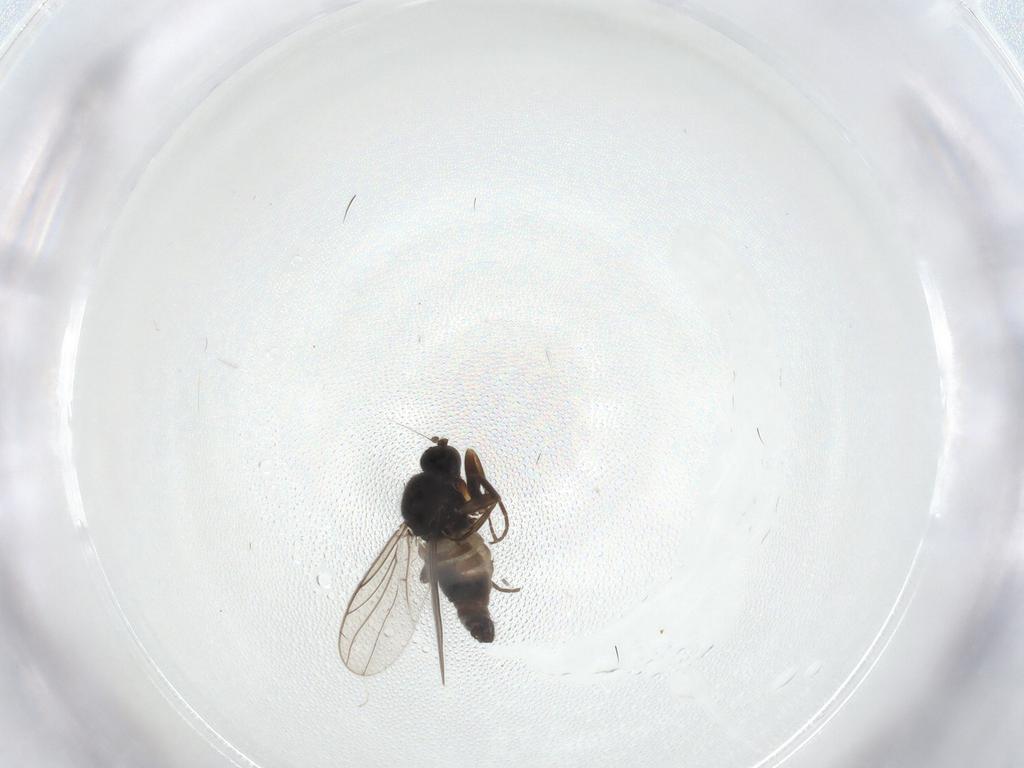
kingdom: Animalia
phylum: Arthropoda
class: Insecta
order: Diptera
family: Hybotidae
